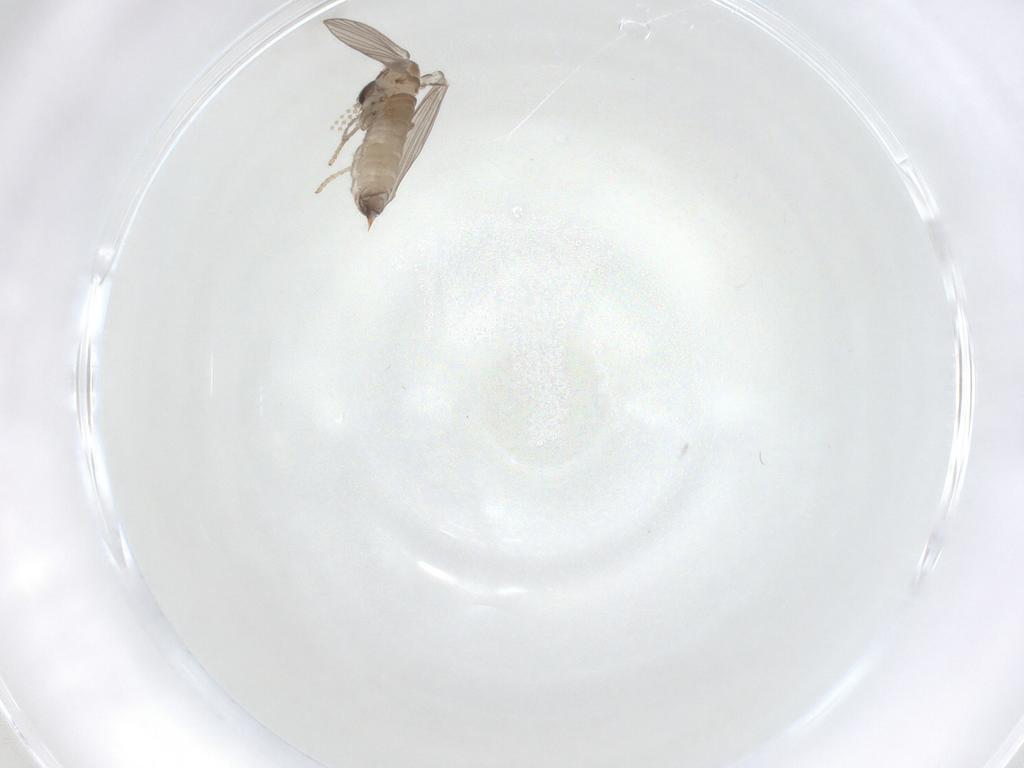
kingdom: Animalia
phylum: Arthropoda
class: Insecta
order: Diptera
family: Psychodidae
